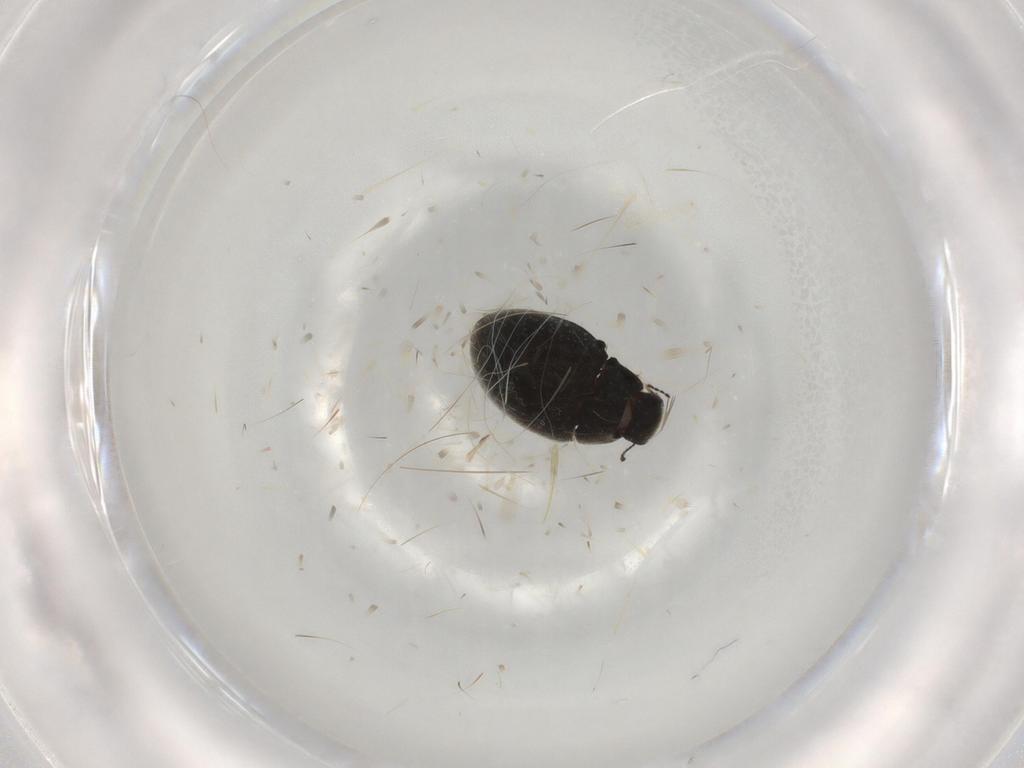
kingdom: Animalia
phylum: Arthropoda
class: Insecta
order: Coleoptera
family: Limnichidae
